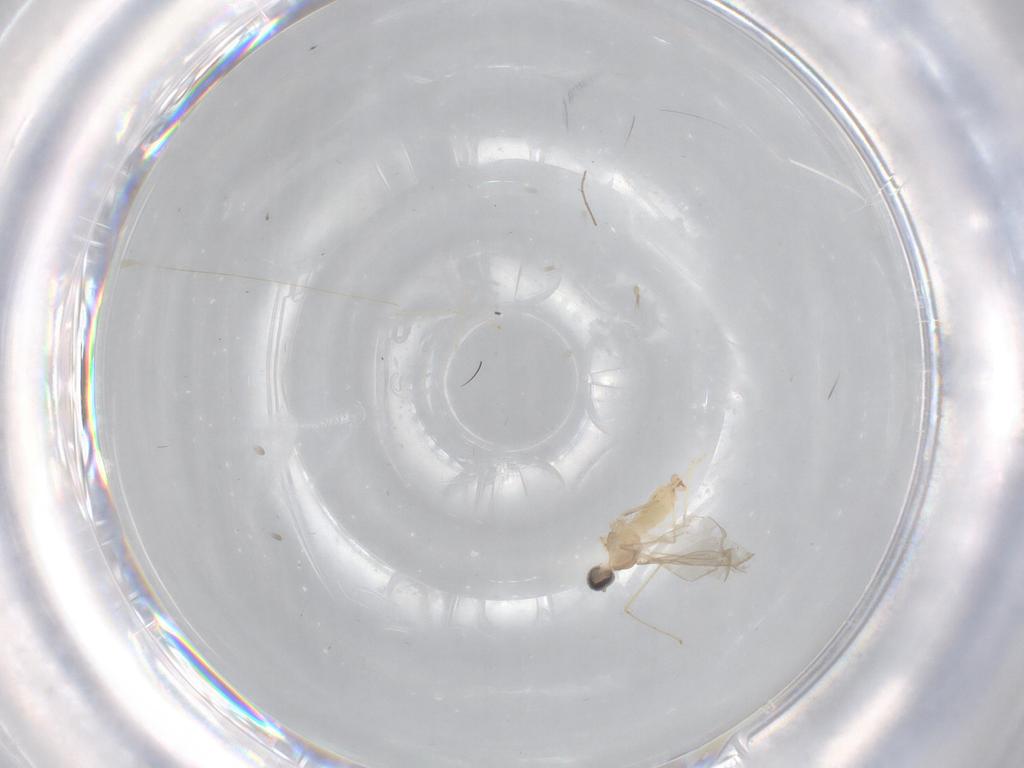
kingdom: Animalia
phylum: Arthropoda
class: Insecta
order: Diptera
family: Cecidomyiidae
